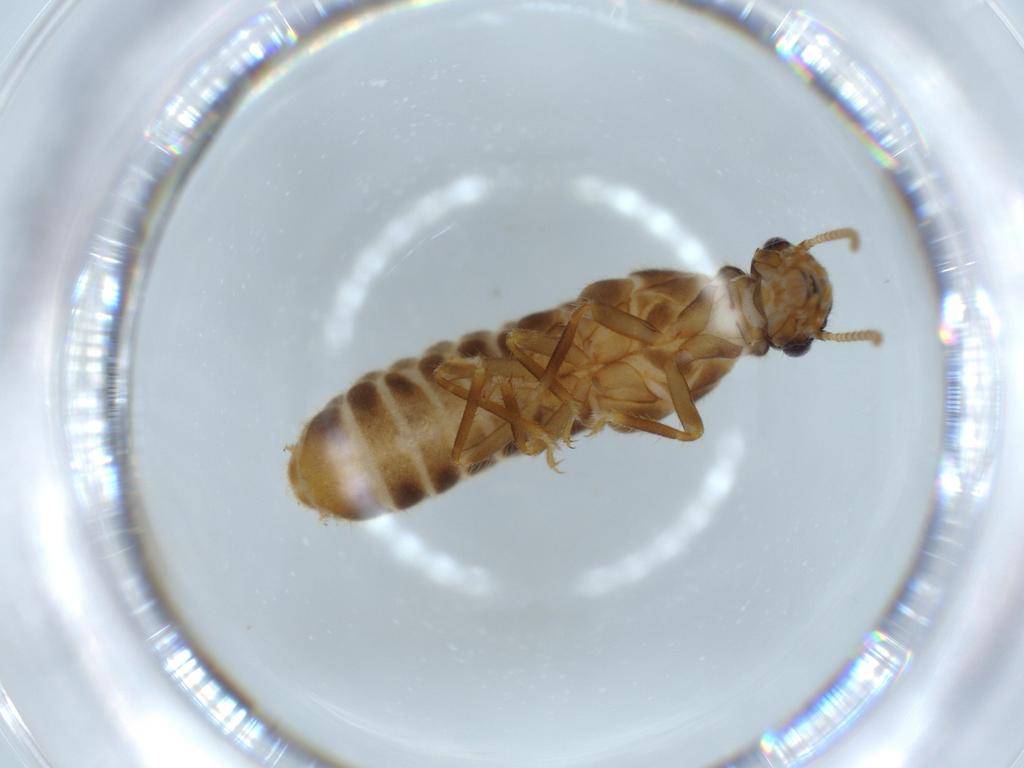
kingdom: Animalia
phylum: Arthropoda
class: Insecta
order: Blattodea
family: Termitidae
